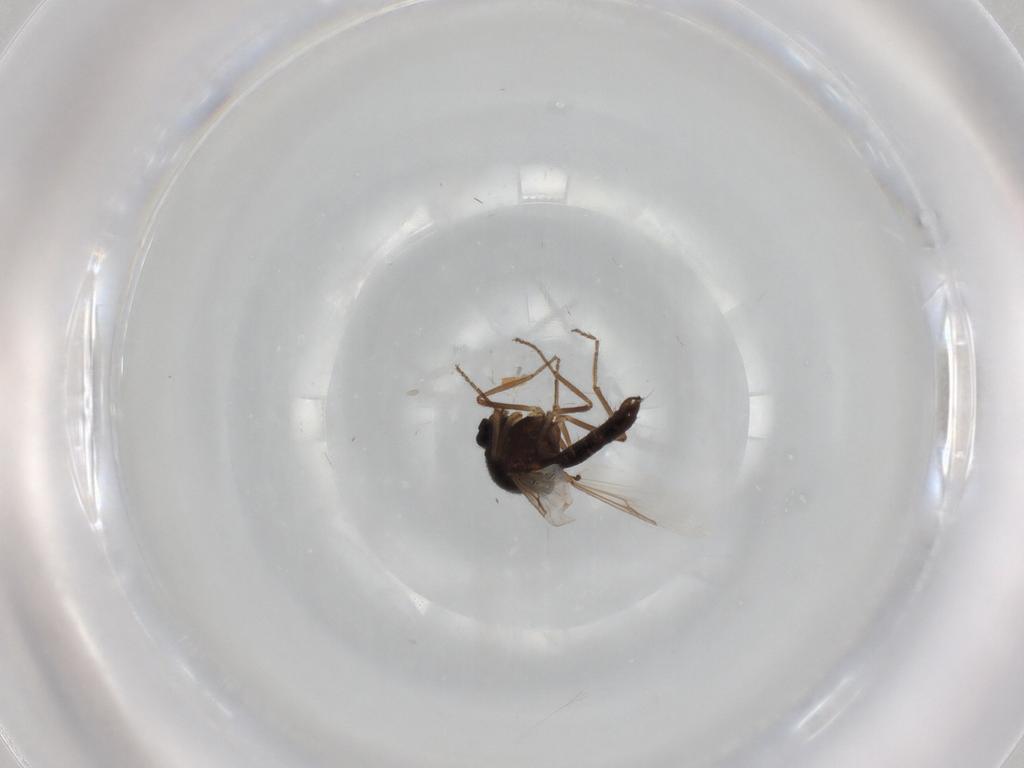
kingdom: Animalia
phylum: Arthropoda
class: Insecta
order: Diptera
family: Ceratopogonidae
